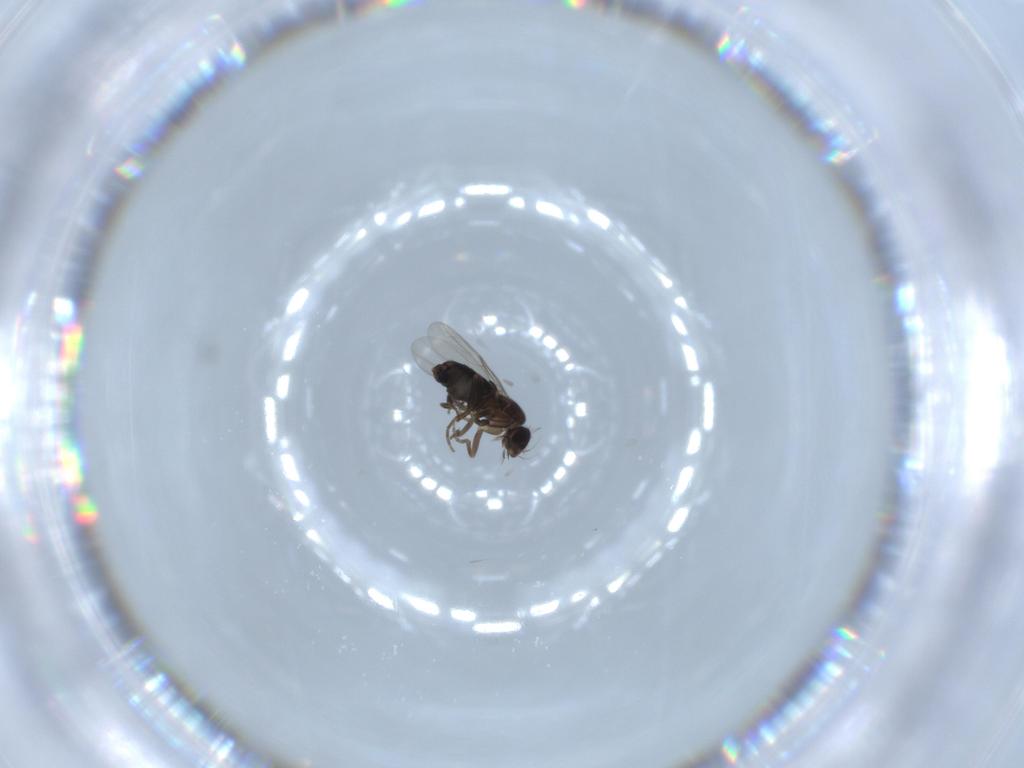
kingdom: Animalia
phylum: Arthropoda
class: Insecta
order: Diptera
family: Phoridae
